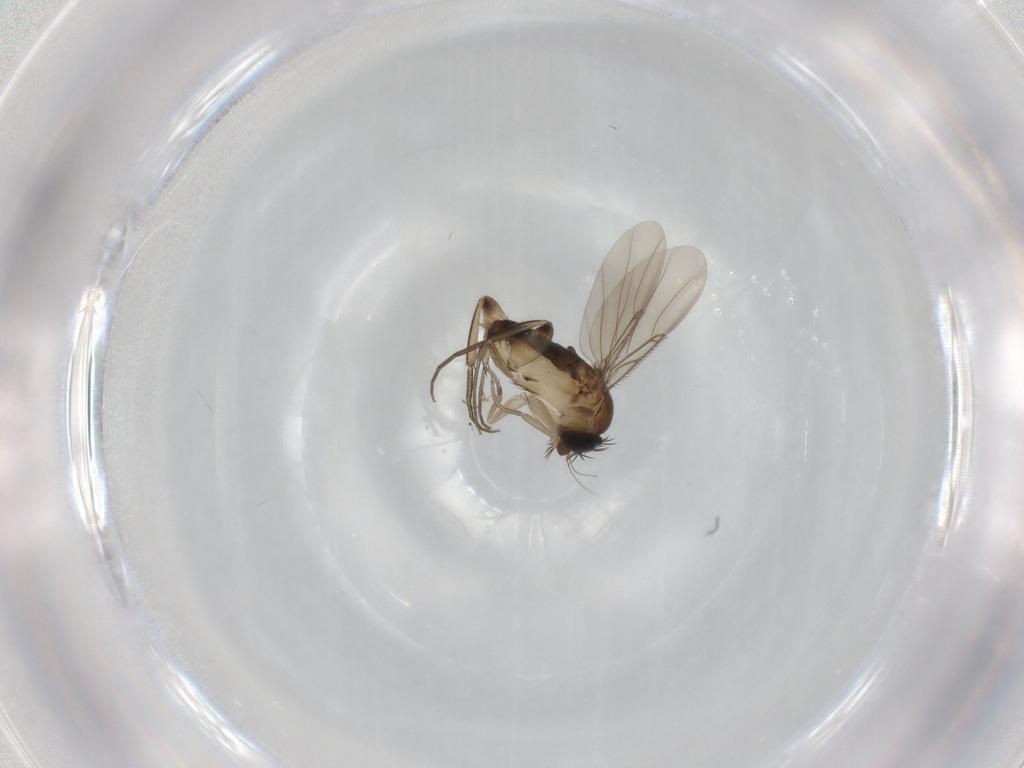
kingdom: Animalia
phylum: Arthropoda
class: Insecta
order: Diptera
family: Phoridae
